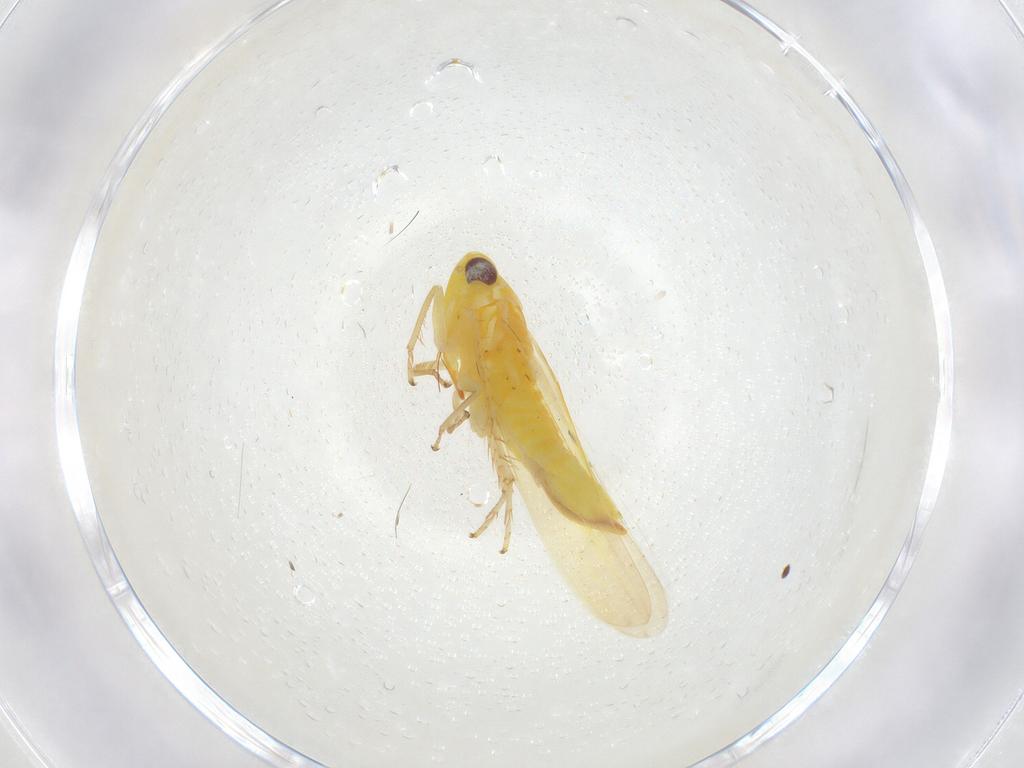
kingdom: Animalia
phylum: Arthropoda
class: Insecta
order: Hemiptera
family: Cicadellidae
